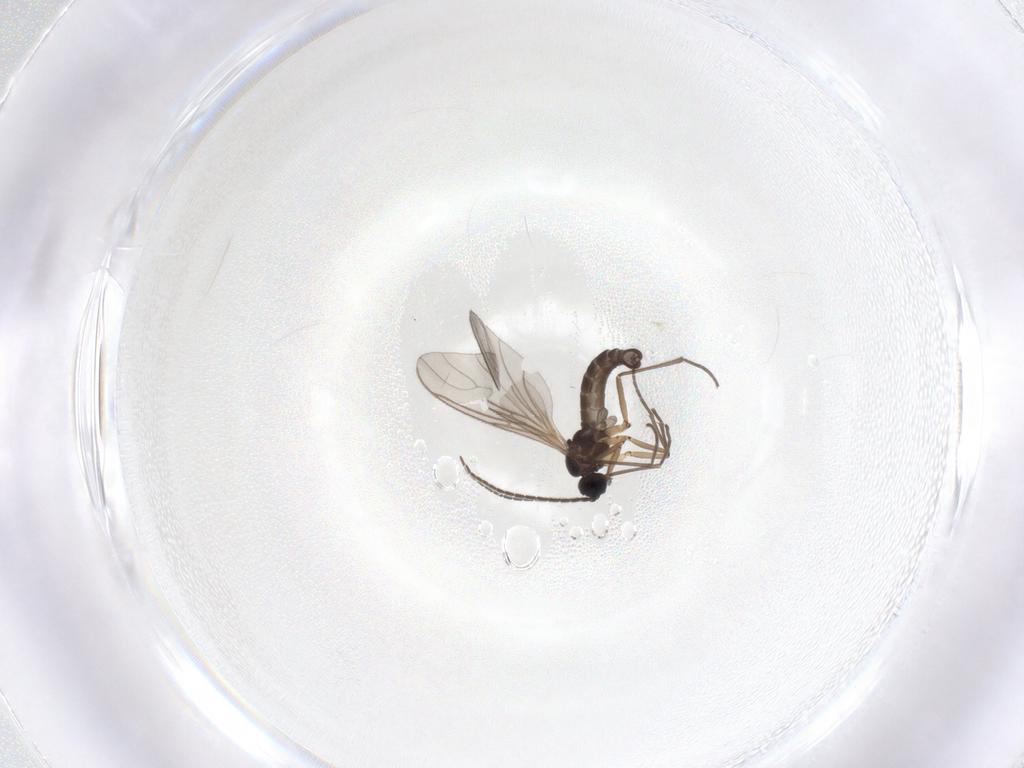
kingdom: Animalia
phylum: Arthropoda
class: Insecta
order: Diptera
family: Sciaridae
